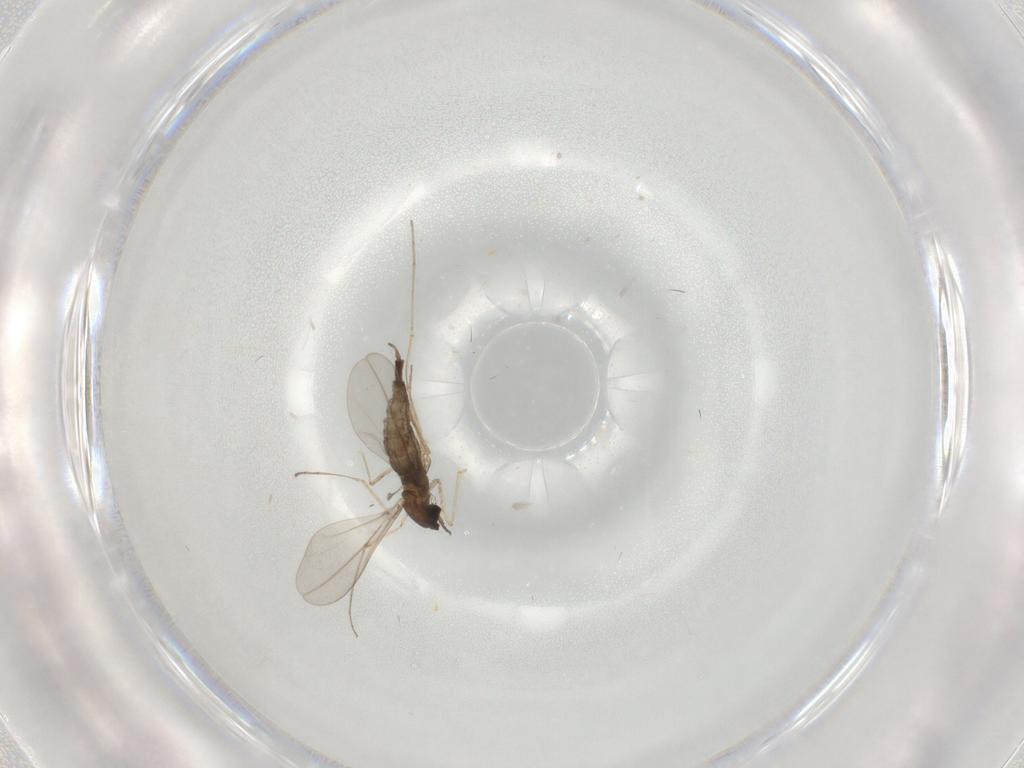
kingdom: Animalia
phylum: Arthropoda
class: Insecta
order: Diptera
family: Cecidomyiidae
